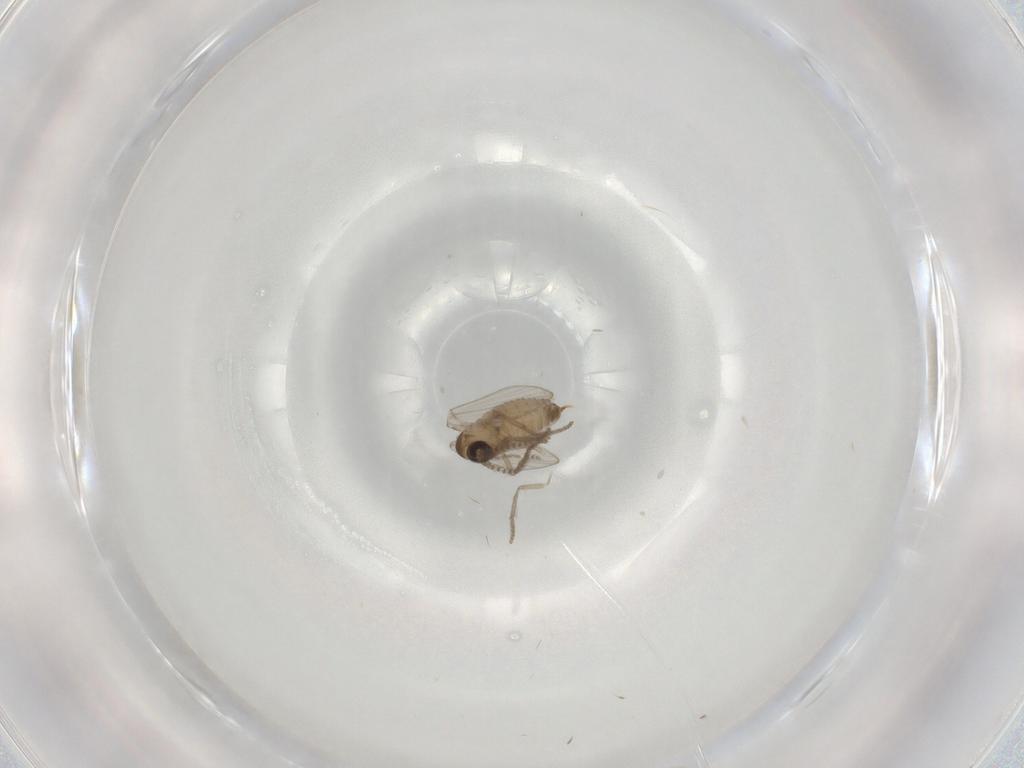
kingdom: Animalia
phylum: Arthropoda
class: Insecta
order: Diptera
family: Psychodidae
